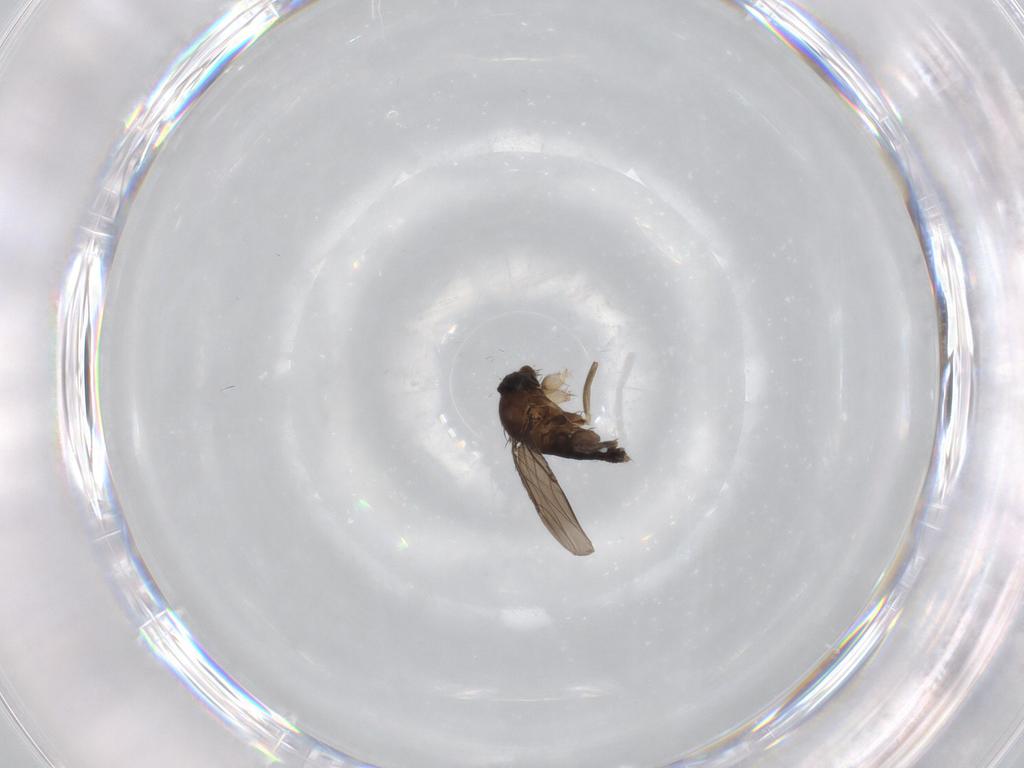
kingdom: Animalia
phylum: Arthropoda
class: Insecta
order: Diptera
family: Phoridae
